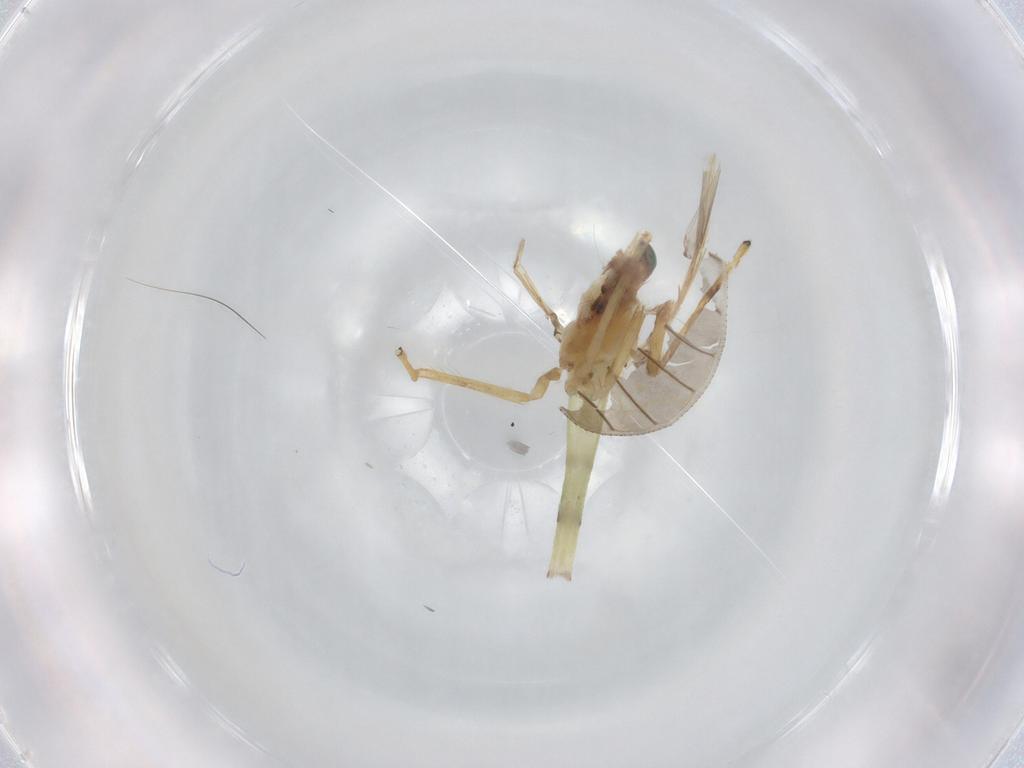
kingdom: Animalia
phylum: Arthropoda
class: Insecta
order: Diptera
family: Chironomidae
